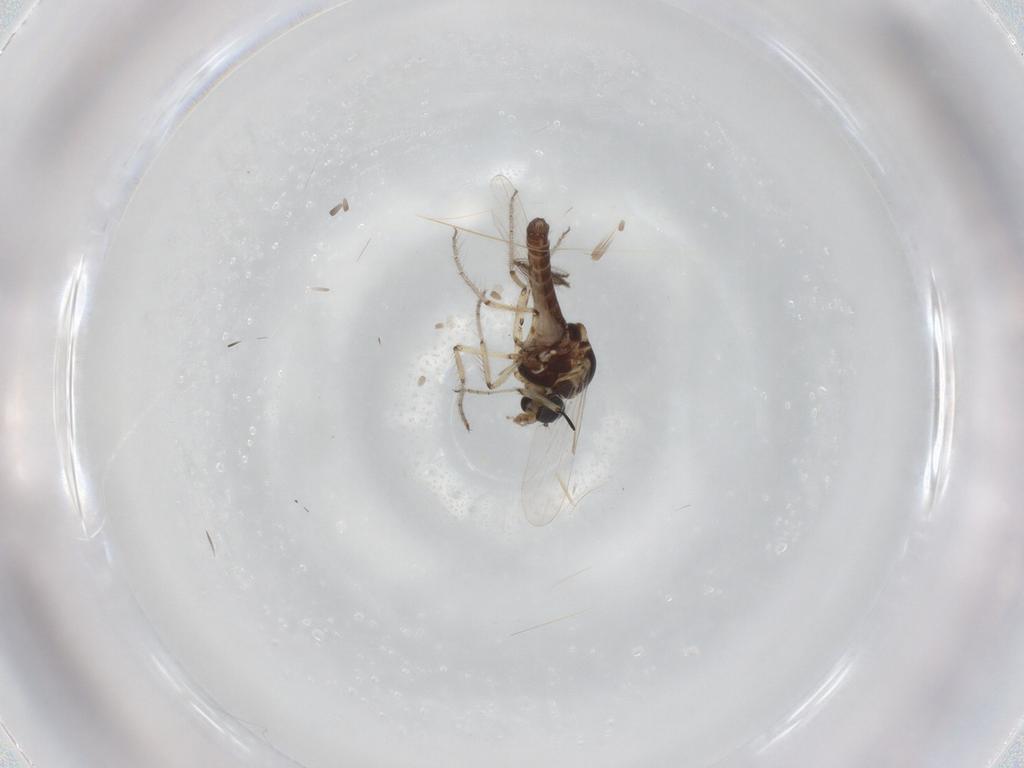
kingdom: Animalia
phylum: Arthropoda
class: Insecta
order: Diptera
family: Ceratopogonidae
